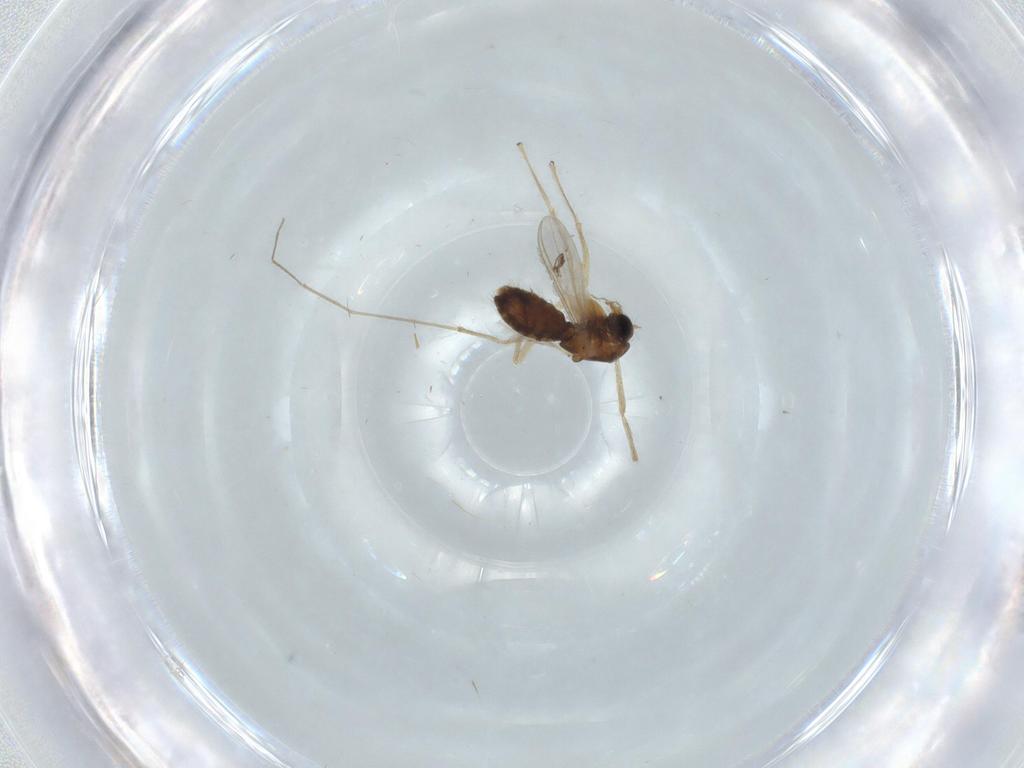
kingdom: Animalia
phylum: Arthropoda
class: Insecta
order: Diptera
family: Chironomidae
